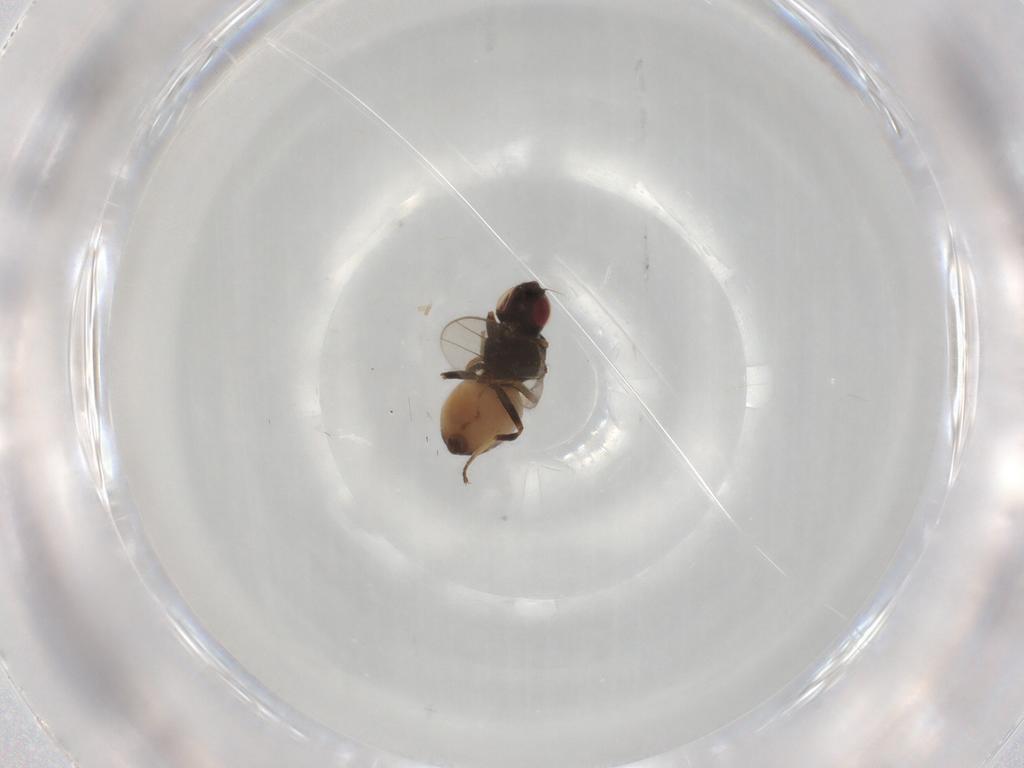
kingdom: Animalia
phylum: Arthropoda
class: Insecta
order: Diptera
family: Chloropidae
